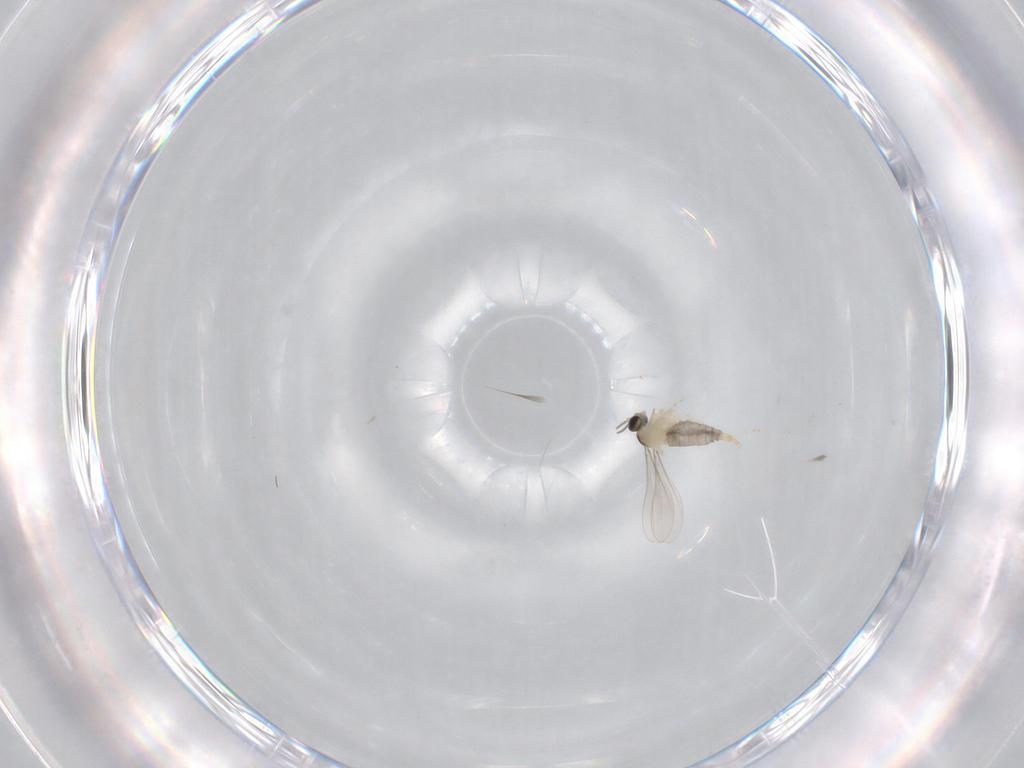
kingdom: Animalia
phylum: Arthropoda
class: Insecta
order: Diptera
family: Cecidomyiidae
